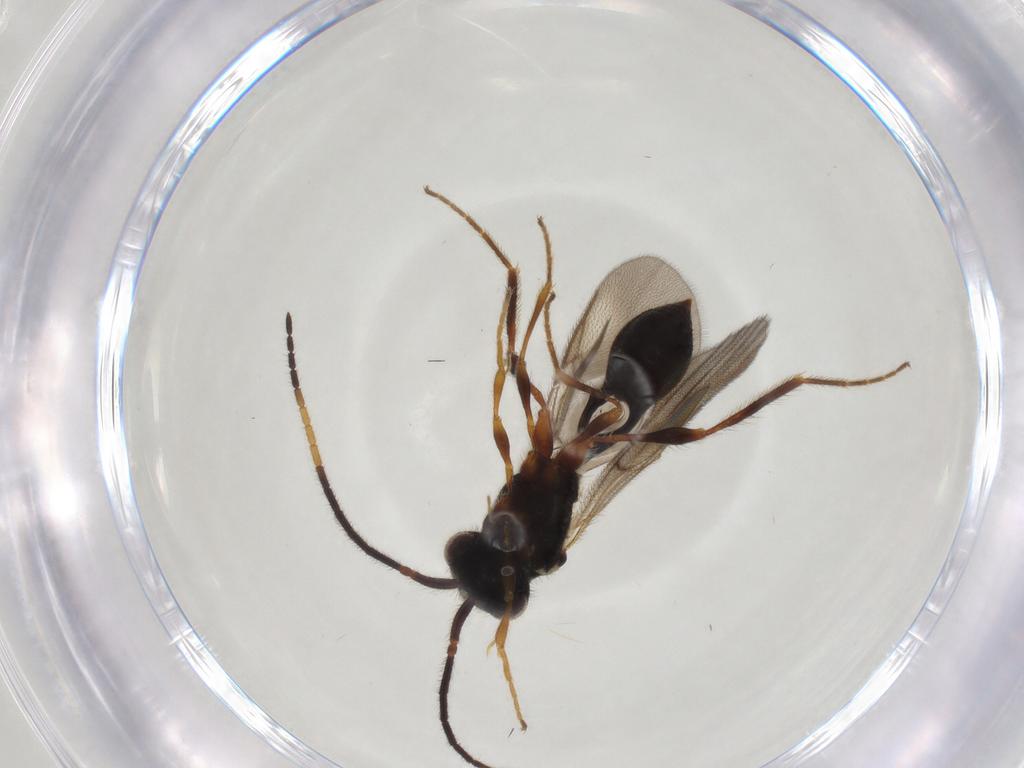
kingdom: Animalia
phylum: Arthropoda
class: Insecta
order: Hymenoptera
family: Diapriidae
